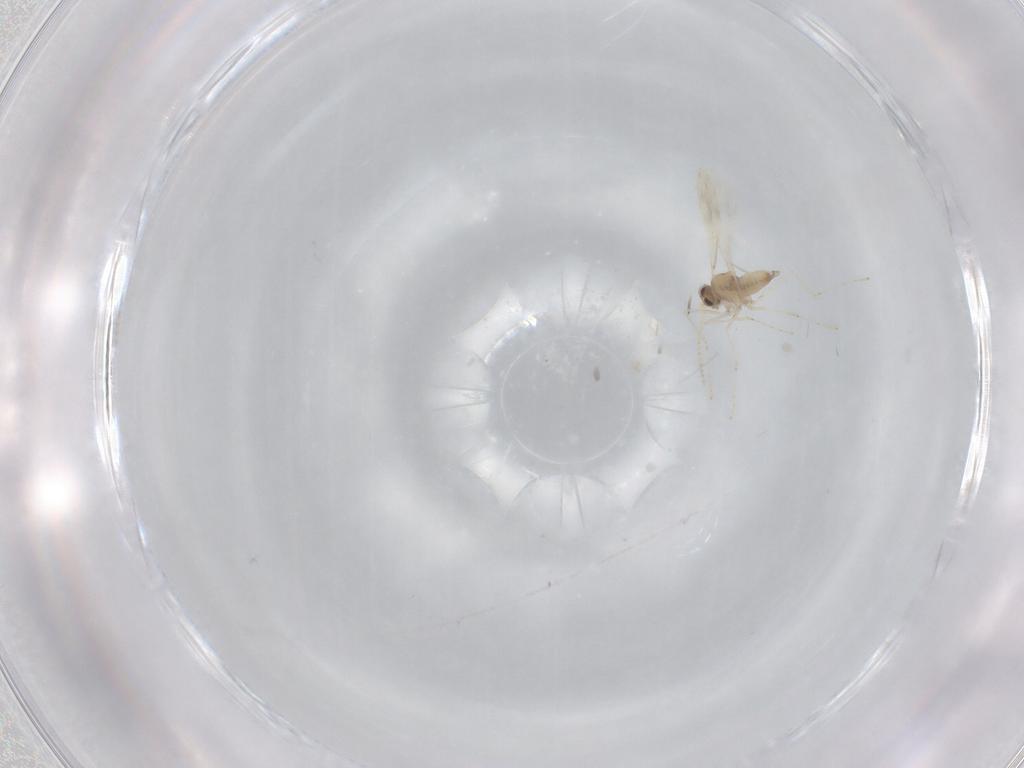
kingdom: Animalia
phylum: Arthropoda
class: Insecta
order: Diptera
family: Cecidomyiidae
